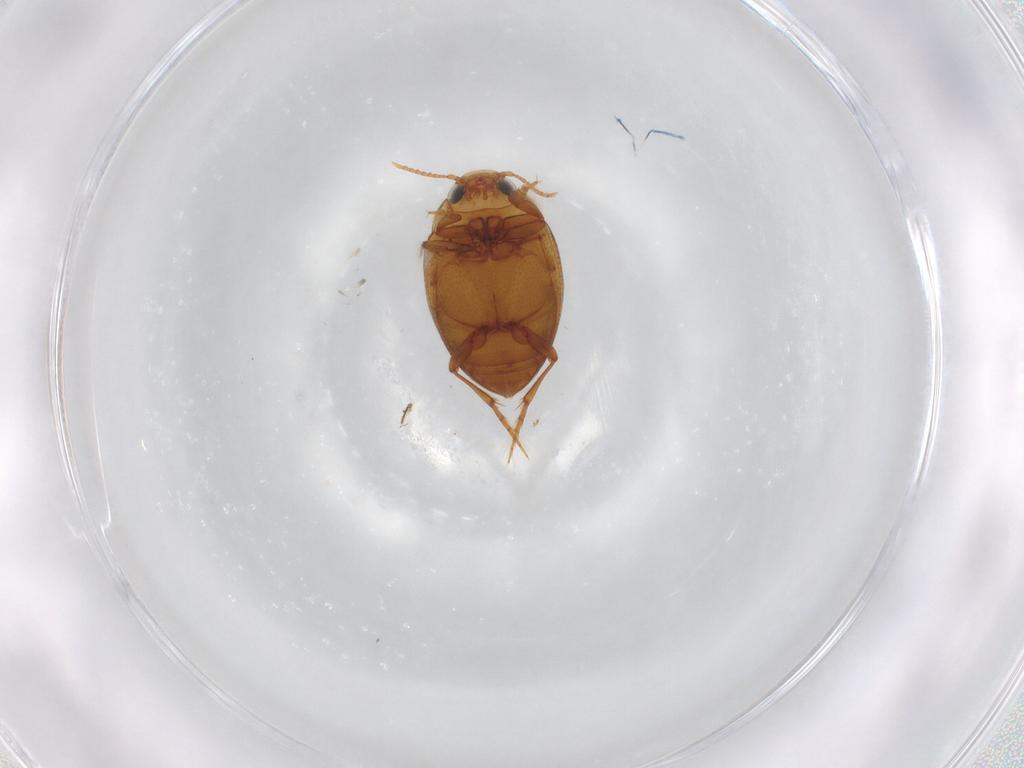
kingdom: Animalia
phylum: Arthropoda
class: Insecta
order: Coleoptera
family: Dytiscidae
